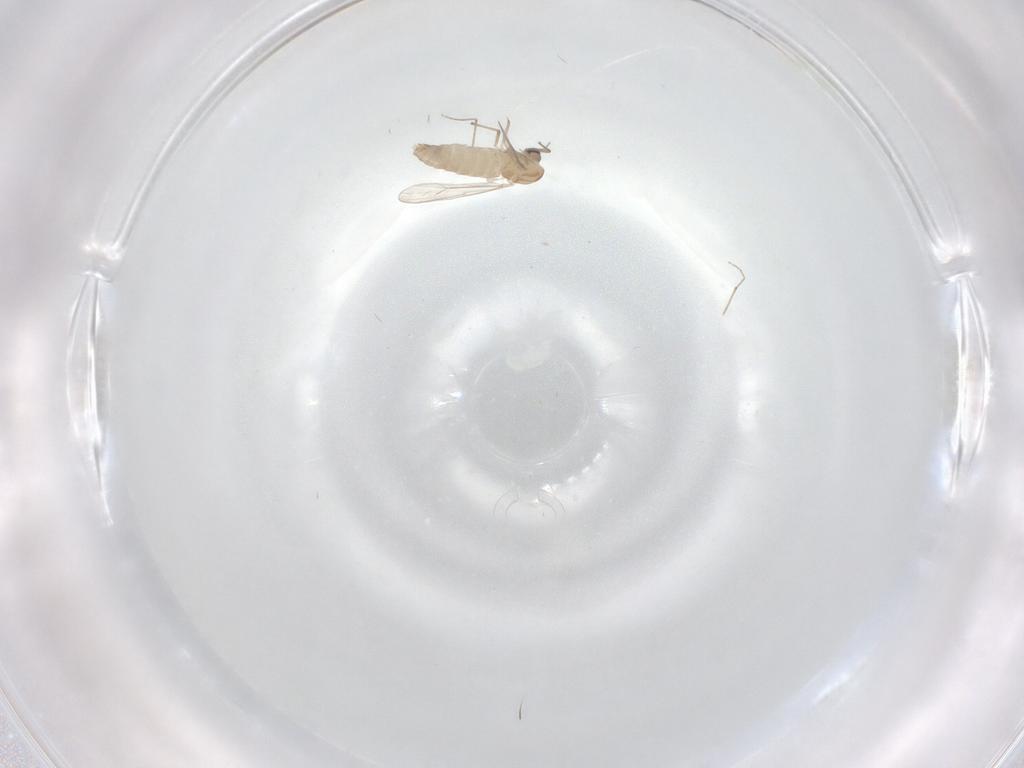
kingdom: Animalia
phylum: Arthropoda
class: Insecta
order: Diptera
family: Chironomidae
